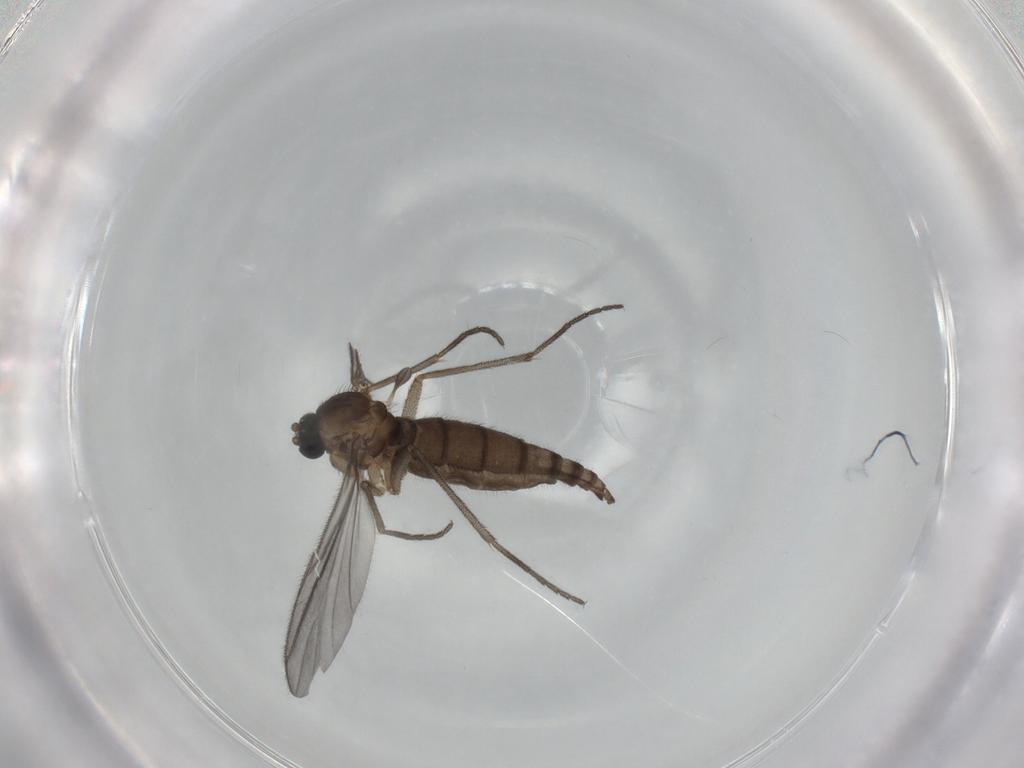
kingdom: Animalia
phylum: Arthropoda
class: Insecta
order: Diptera
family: Sciaridae
